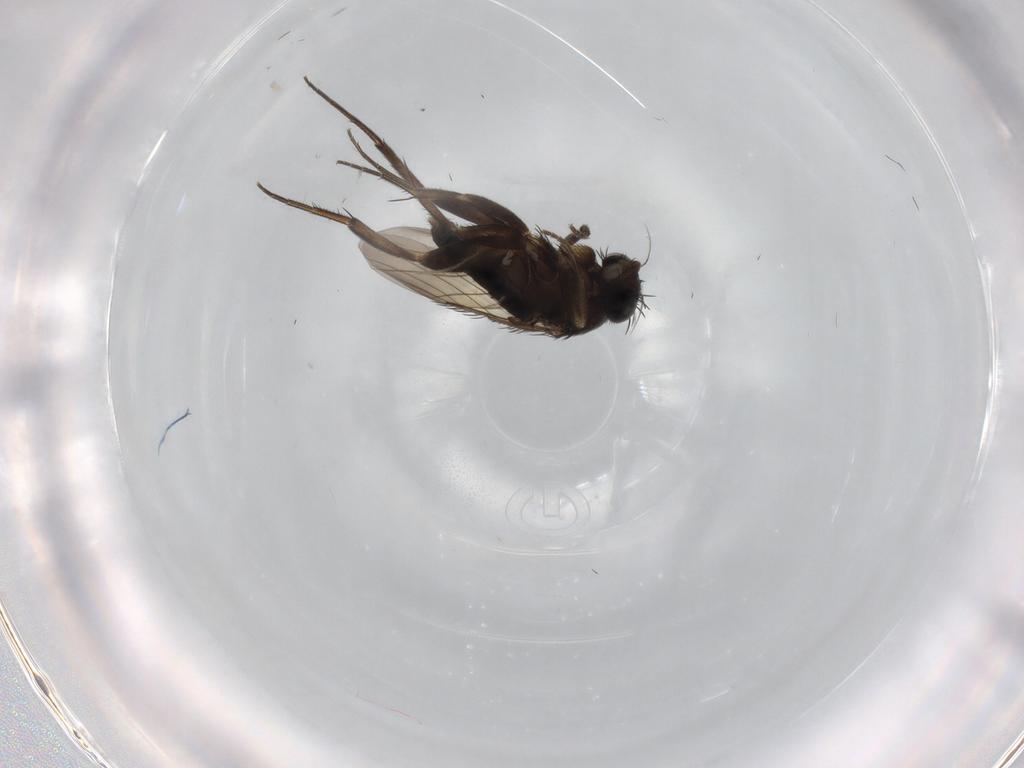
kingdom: Animalia
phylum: Arthropoda
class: Insecta
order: Diptera
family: Phoridae
